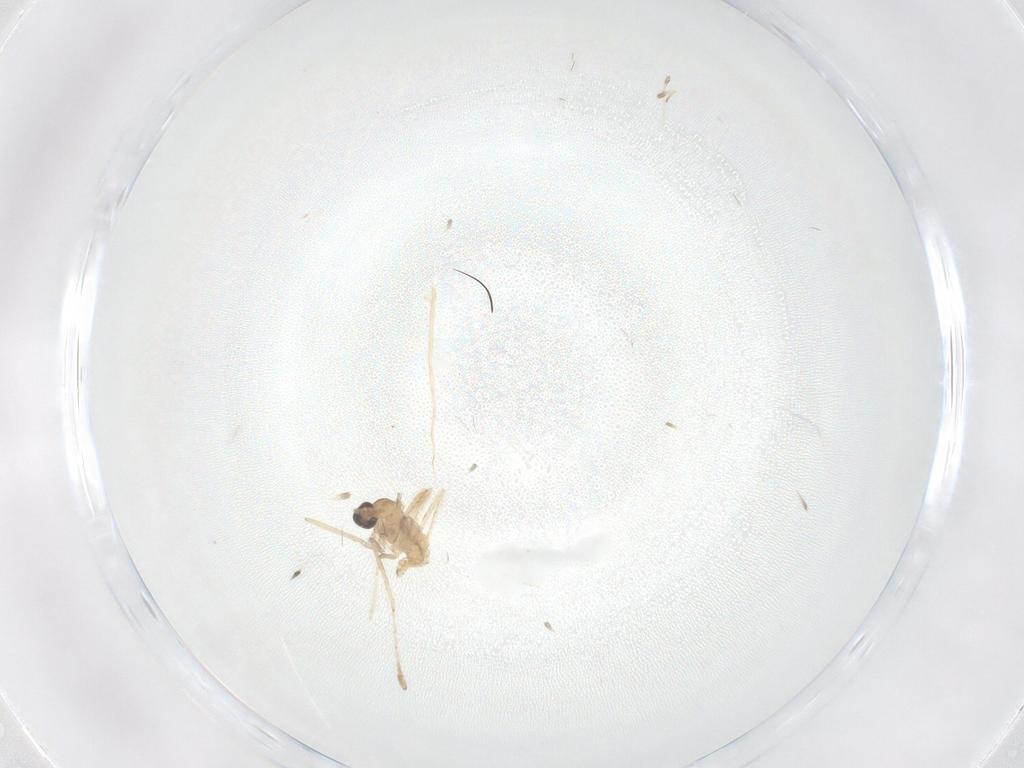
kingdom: Animalia
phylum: Arthropoda
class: Insecta
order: Diptera
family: Cecidomyiidae
